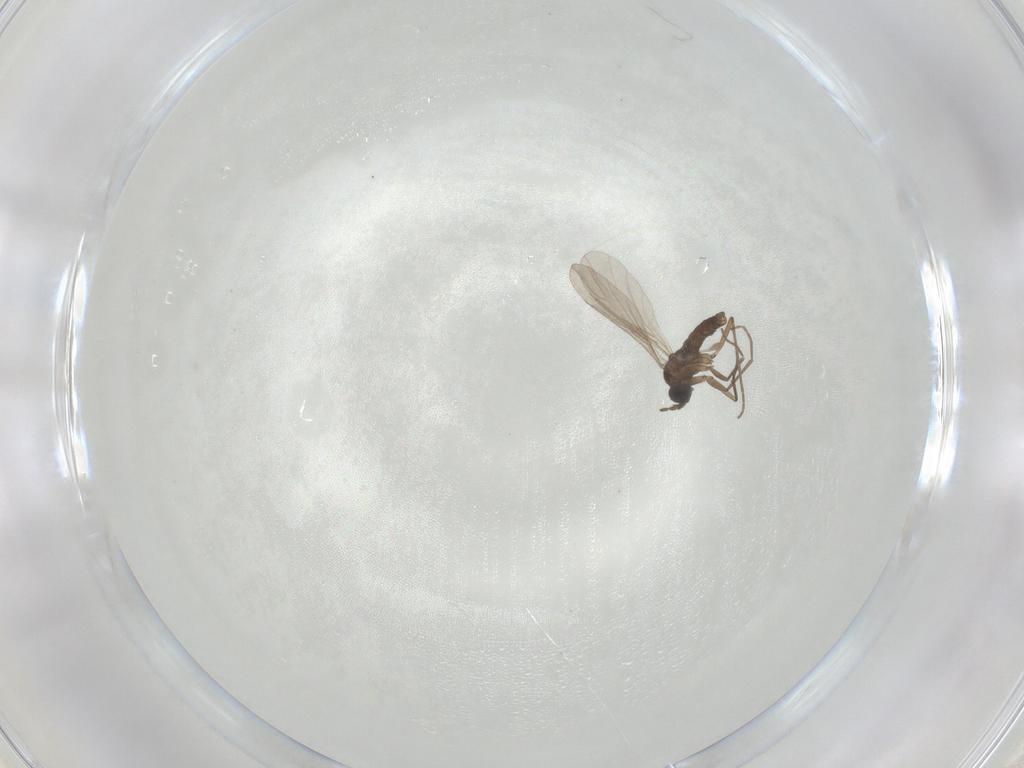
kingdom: Animalia
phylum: Arthropoda
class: Insecta
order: Diptera
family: Sciaridae
